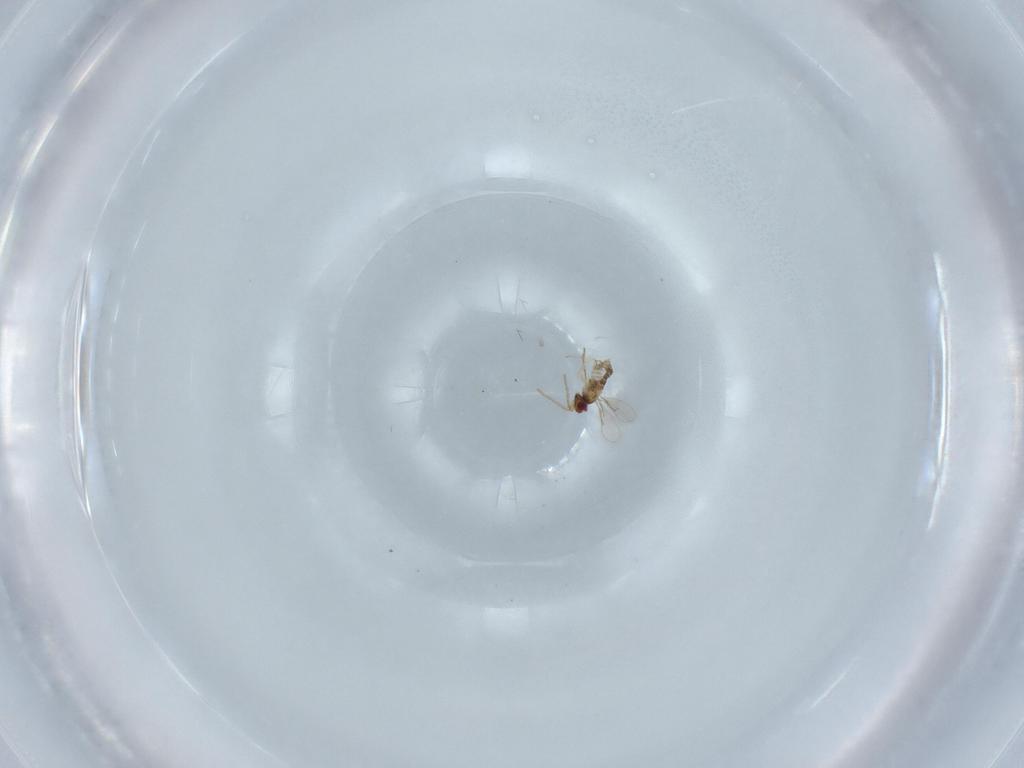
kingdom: Animalia
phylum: Arthropoda
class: Insecta
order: Hymenoptera
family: Aphelinidae
